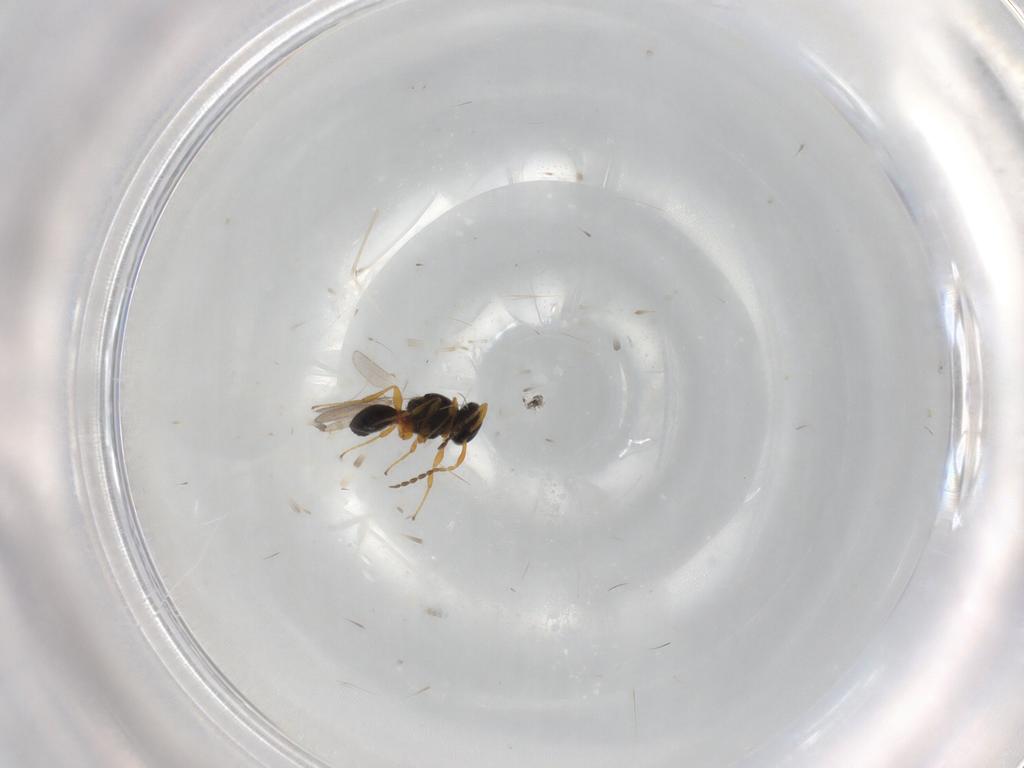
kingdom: Animalia
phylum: Arthropoda
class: Insecta
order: Hymenoptera
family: Platygastridae
